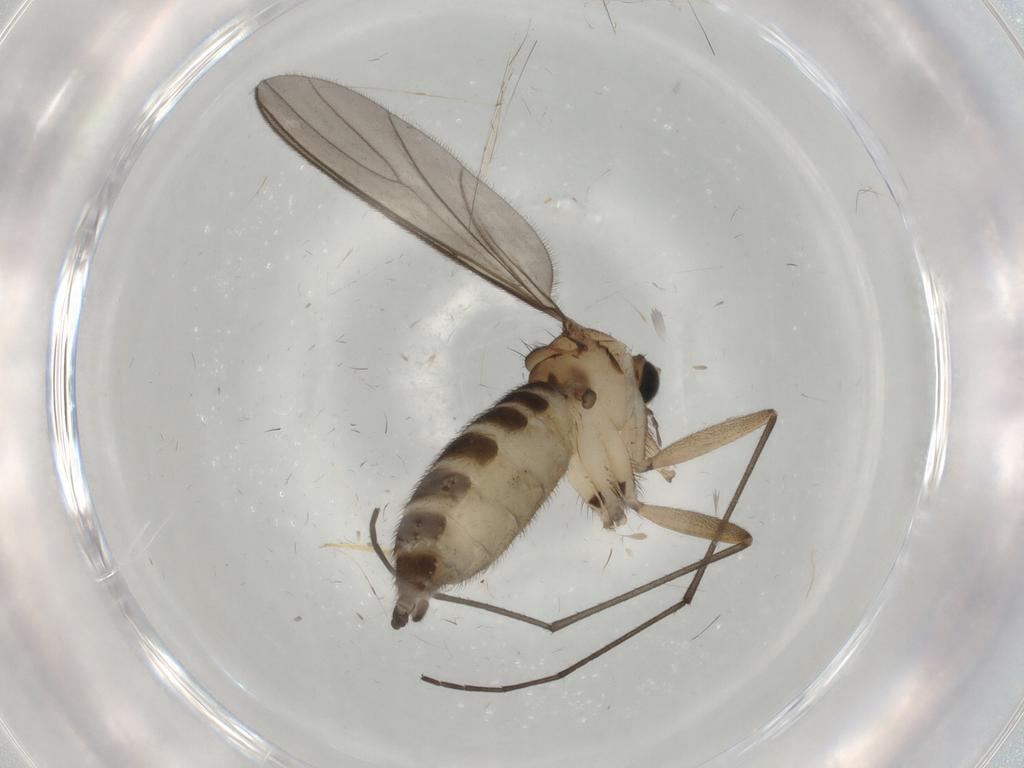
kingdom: Animalia
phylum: Arthropoda
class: Insecta
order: Diptera
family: Sciaridae
